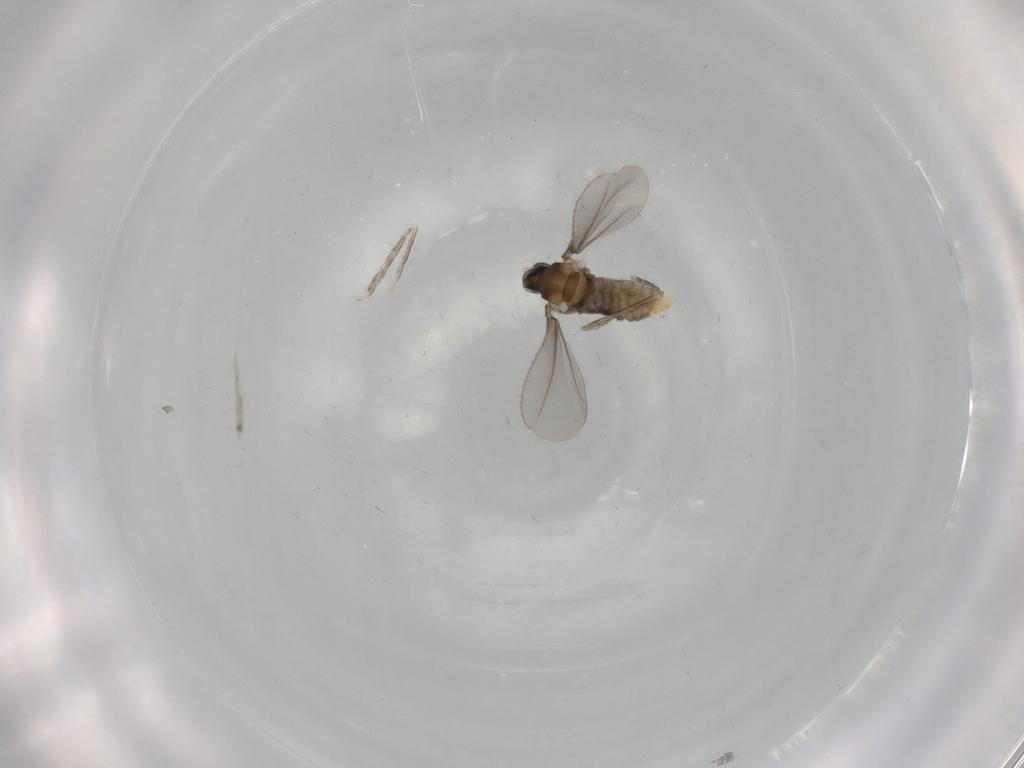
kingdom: Animalia
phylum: Arthropoda
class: Insecta
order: Diptera
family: Cecidomyiidae
